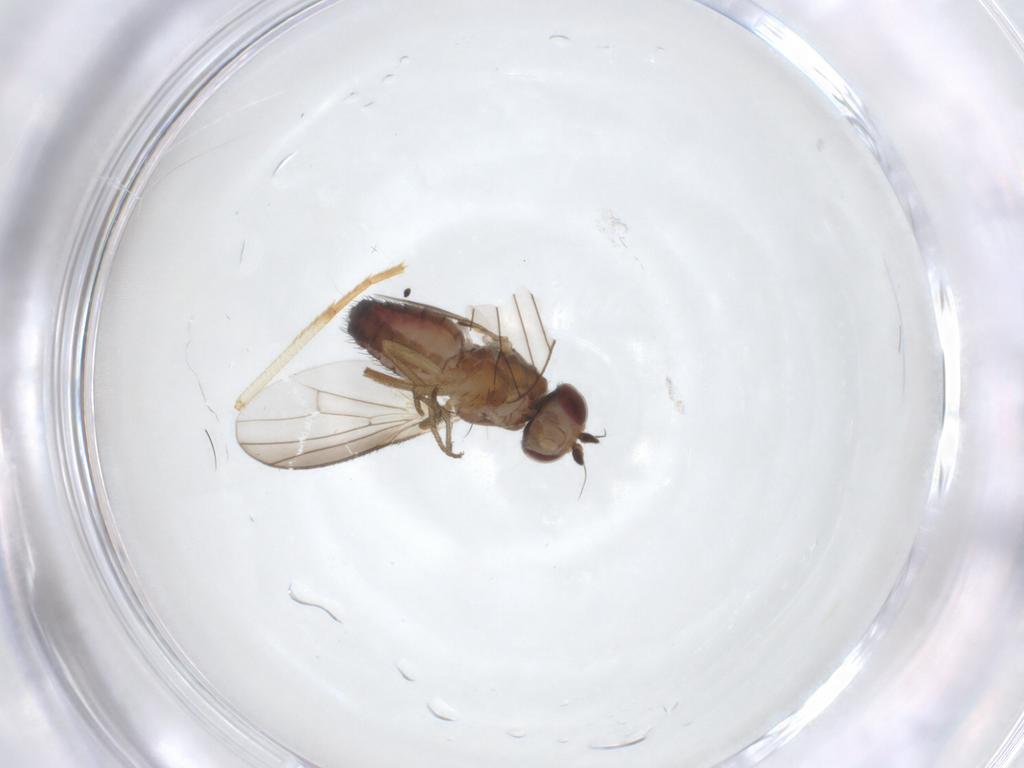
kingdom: Animalia
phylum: Arthropoda
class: Insecta
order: Diptera
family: Heleomyzidae
